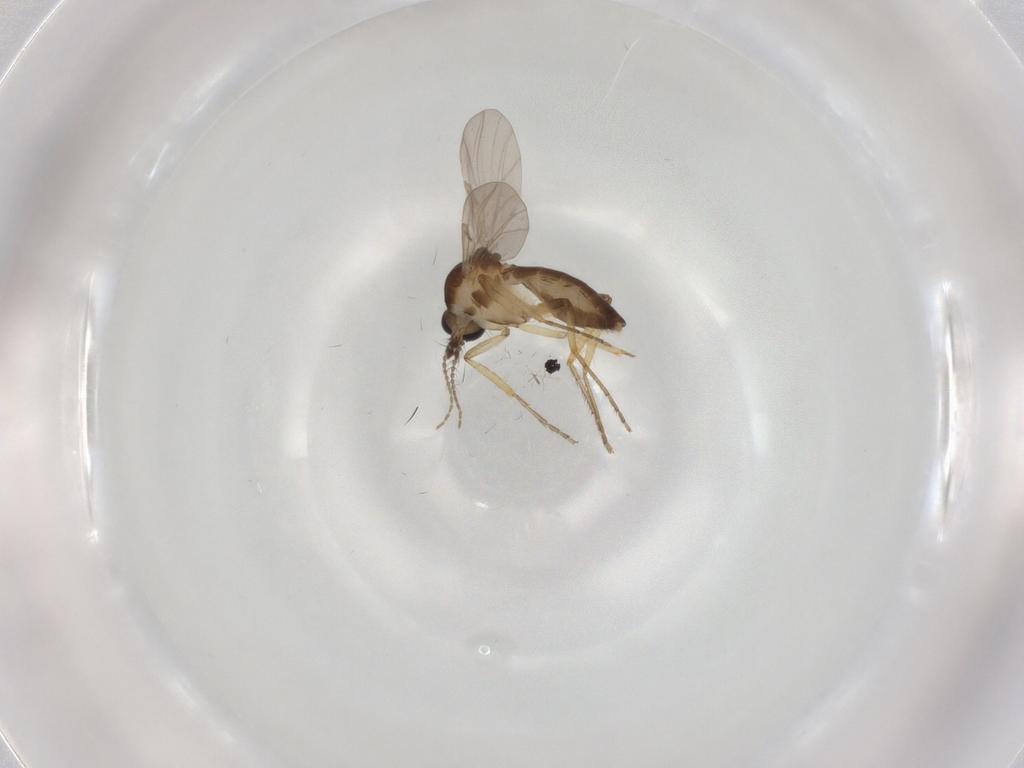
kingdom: Animalia
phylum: Arthropoda
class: Insecta
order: Diptera
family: Ceratopogonidae
